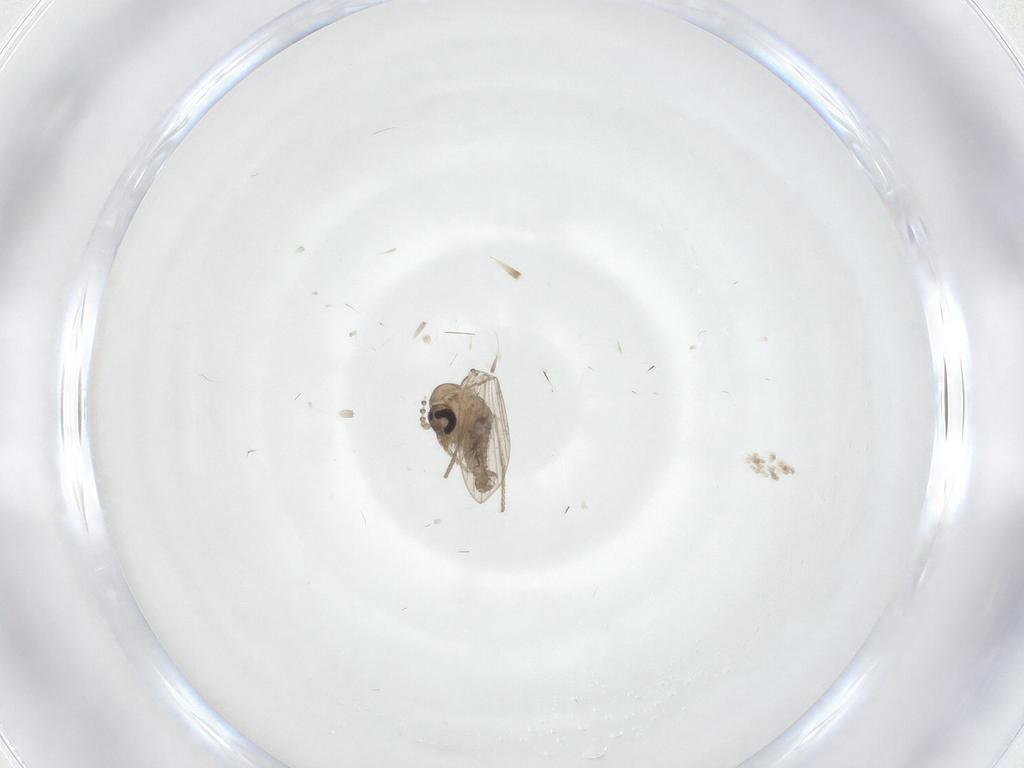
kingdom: Animalia
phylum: Arthropoda
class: Insecta
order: Diptera
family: Psychodidae
